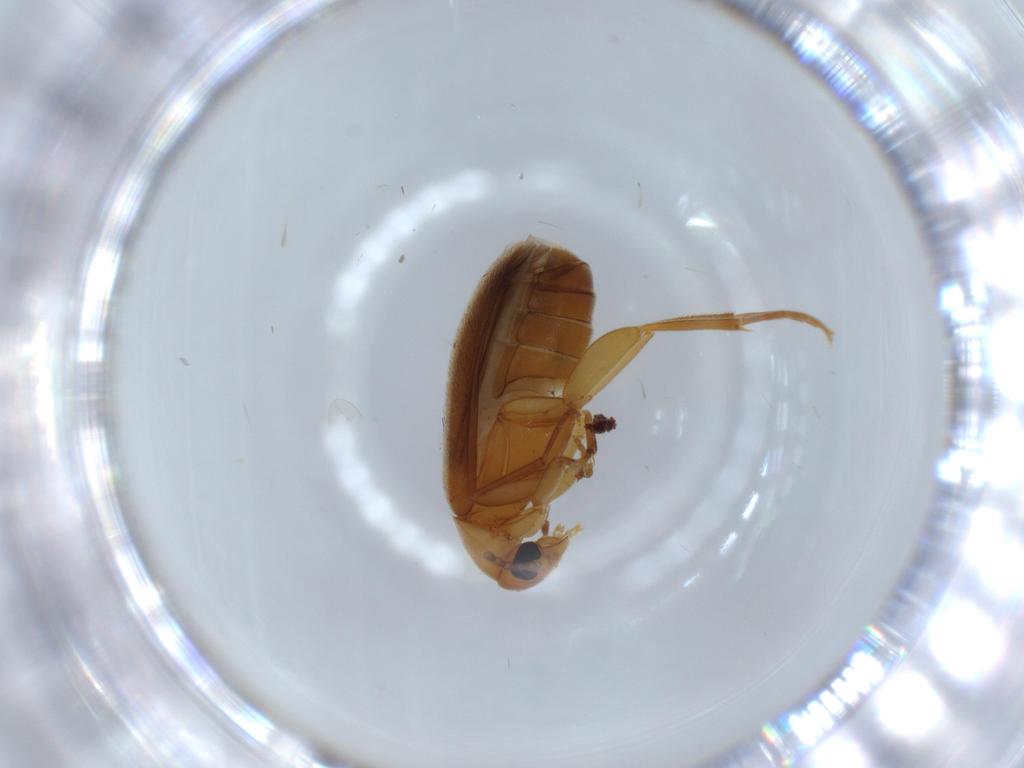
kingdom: Animalia
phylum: Arthropoda
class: Insecta
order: Coleoptera
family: Scraptiidae
